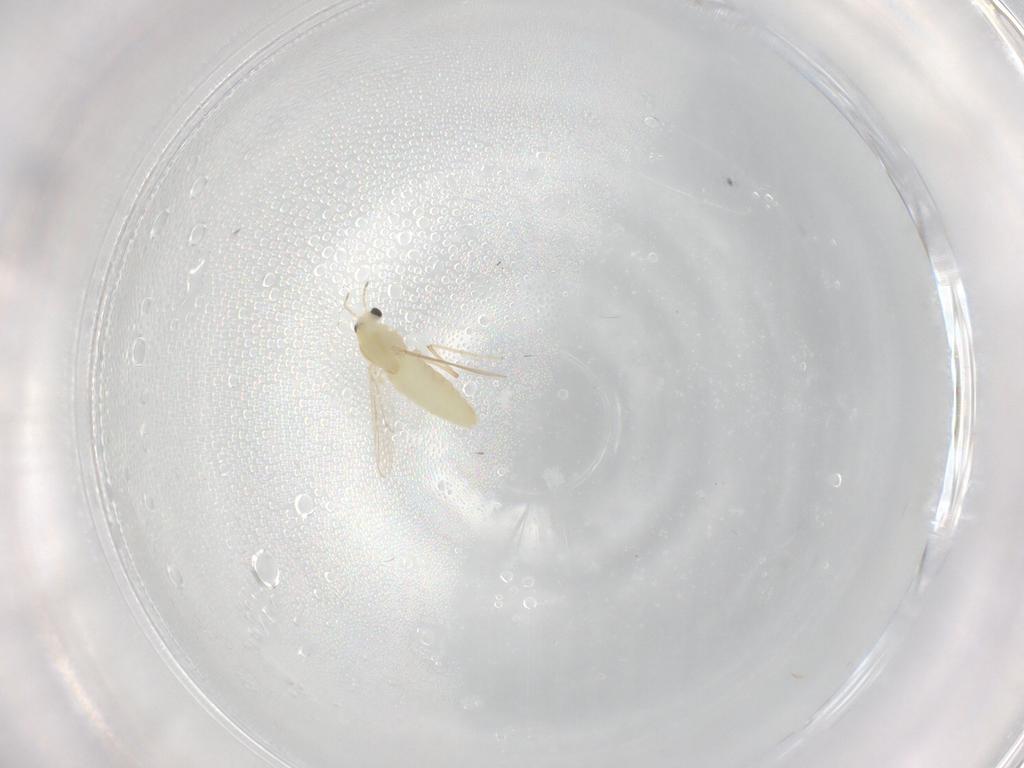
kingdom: Animalia
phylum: Arthropoda
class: Insecta
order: Diptera
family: Chironomidae
